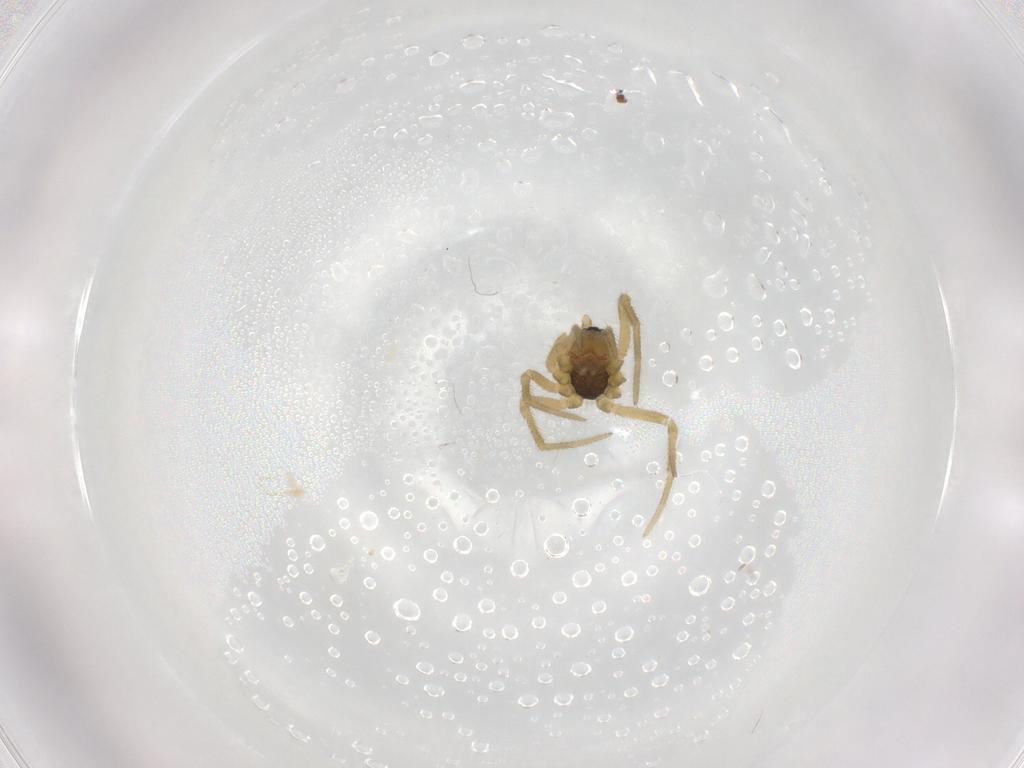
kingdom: Animalia
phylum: Arthropoda
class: Arachnida
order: Araneae
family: Linyphiidae
